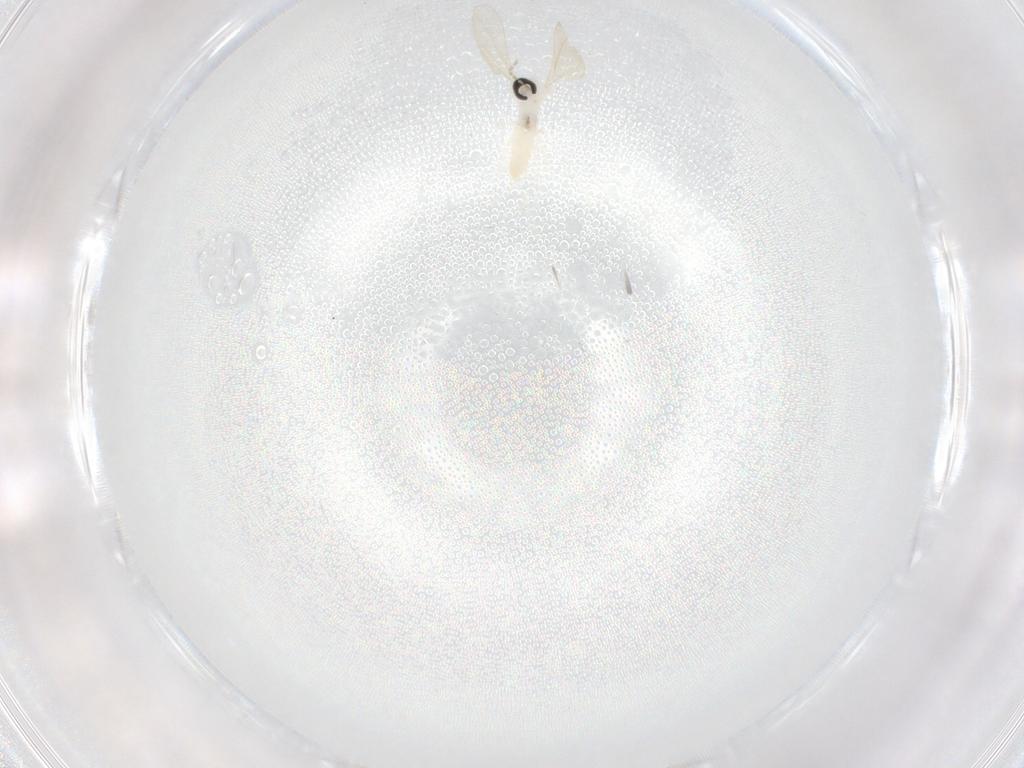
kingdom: Animalia
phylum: Arthropoda
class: Insecta
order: Diptera
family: Cecidomyiidae
